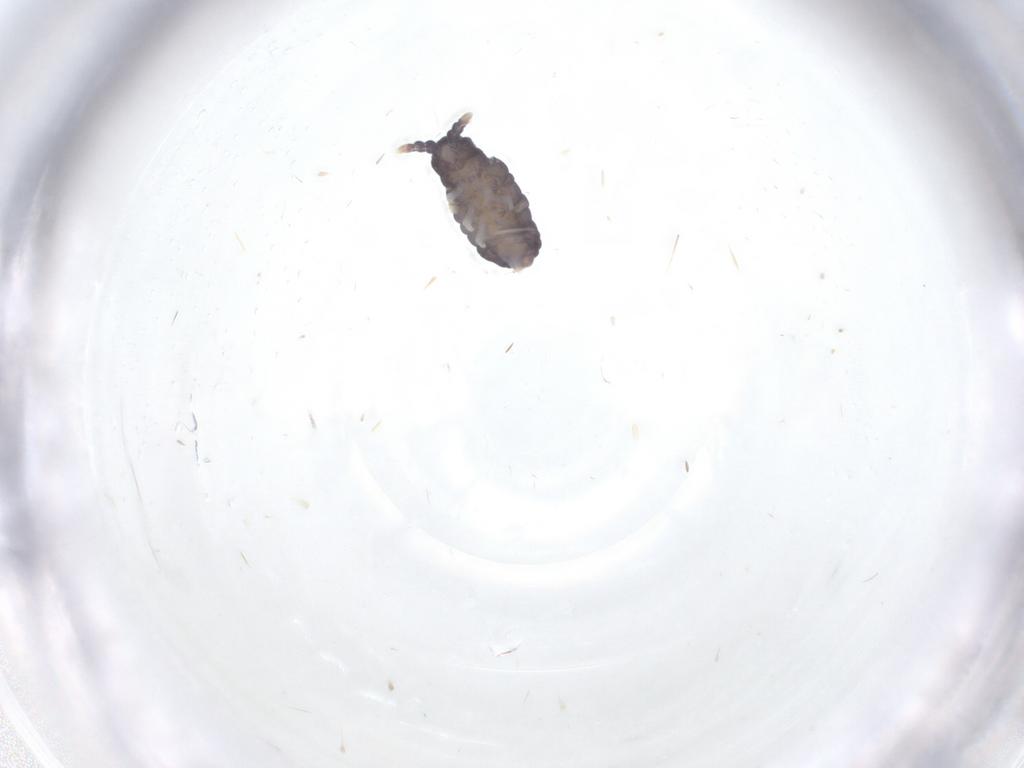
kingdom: Animalia
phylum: Arthropoda
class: Collembola
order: Poduromorpha
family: Neanuridae
